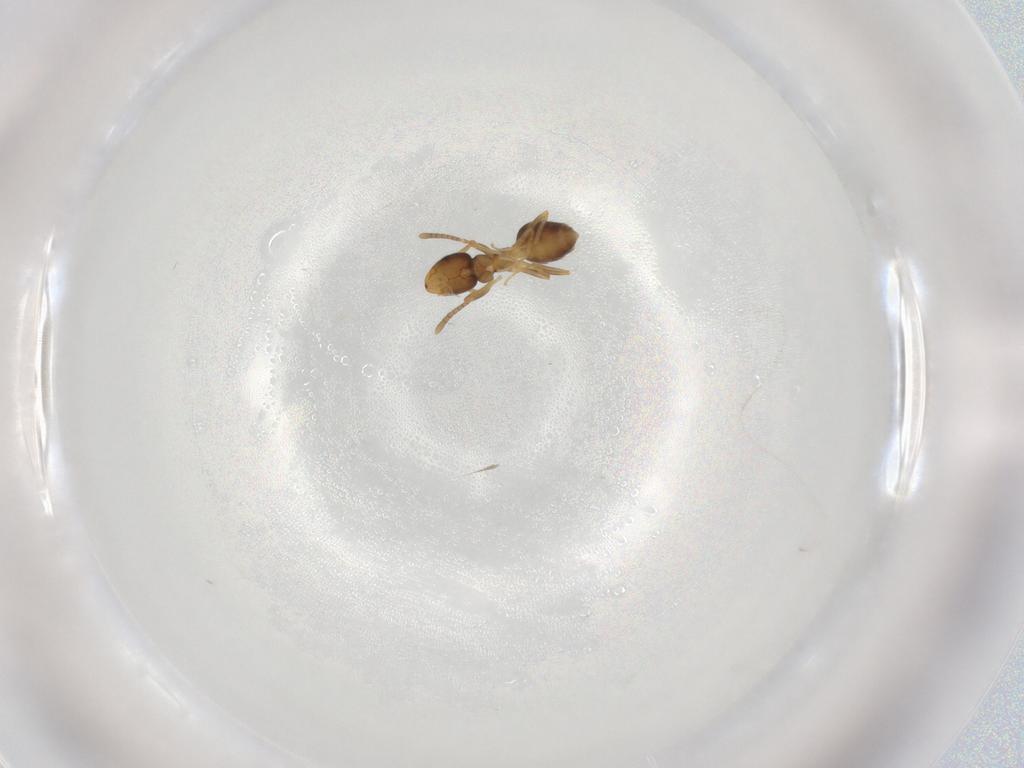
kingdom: Animalia
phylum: Arthropoda
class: Insecta
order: Hymenoptera
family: Formicidae
